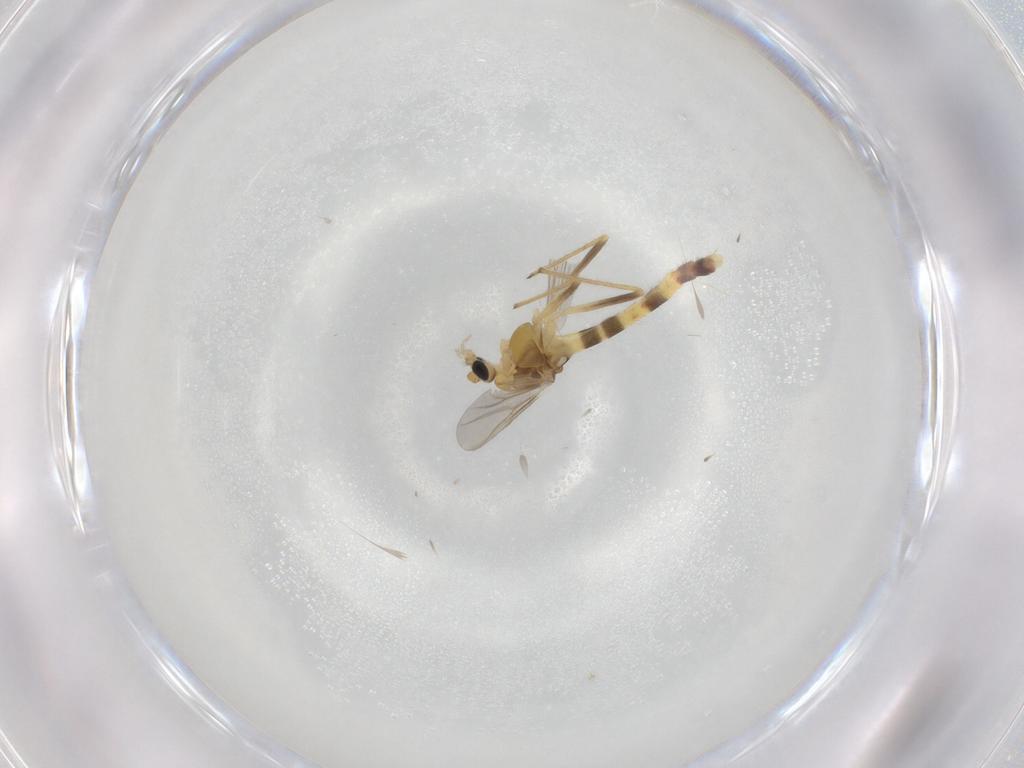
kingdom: Animalia
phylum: Arthropoda
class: Insecta
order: Diptera
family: Chironomidae
